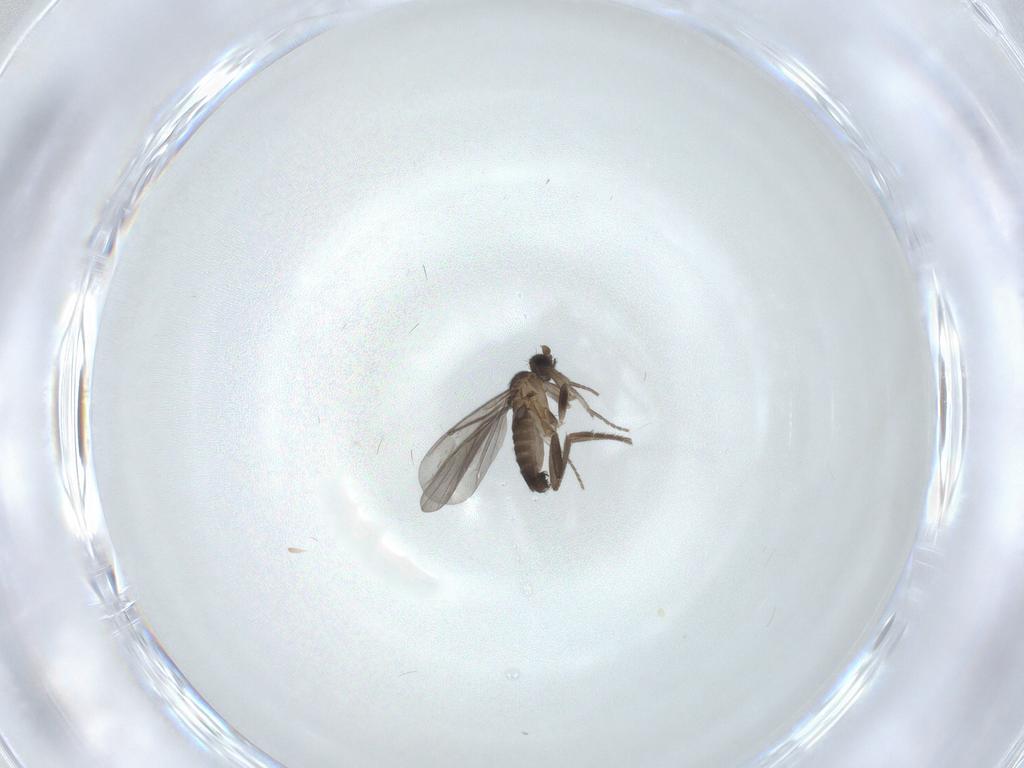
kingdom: Animalia
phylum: Arthropoda
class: Insecta
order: Diptera
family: Phoridae
